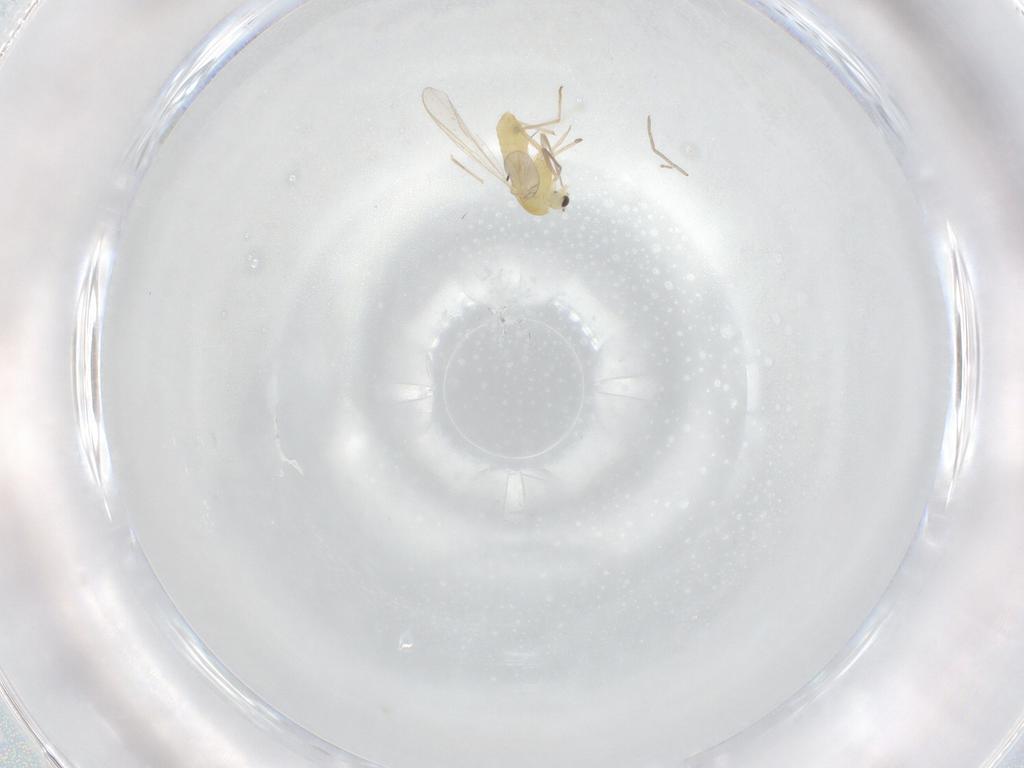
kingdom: Animalia
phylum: Arthropoda
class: Insecta
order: Diptera
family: Chironomidae
